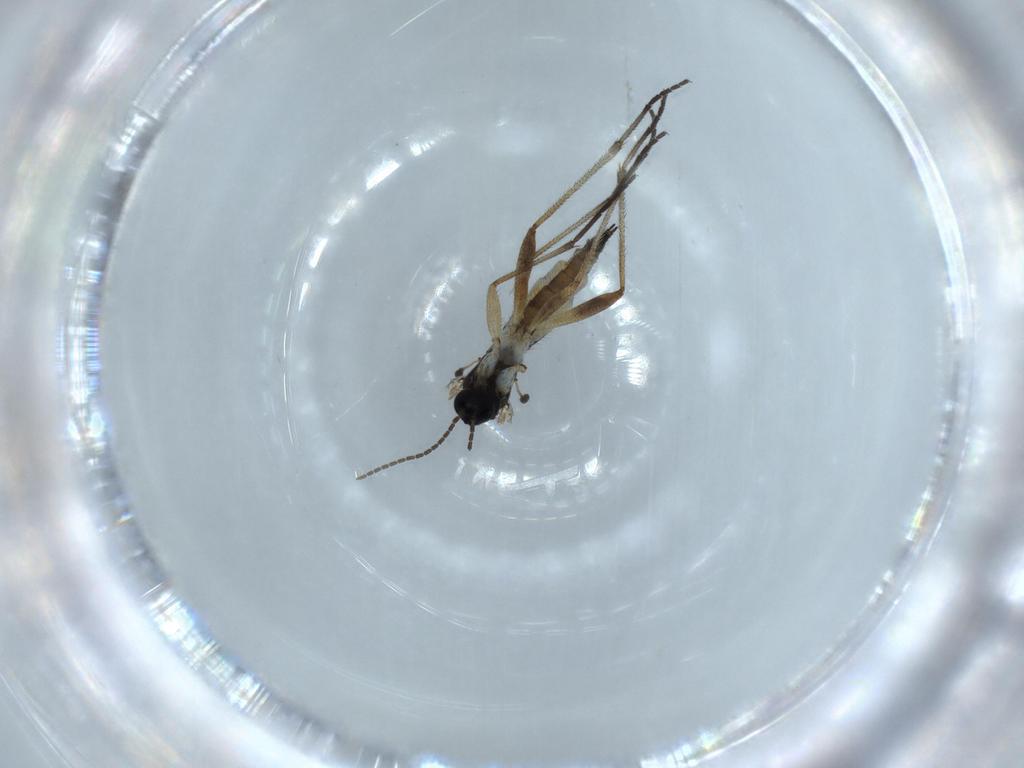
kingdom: Animalia
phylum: Arthropoda
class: Insecta
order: Diptera
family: Sciaridae
